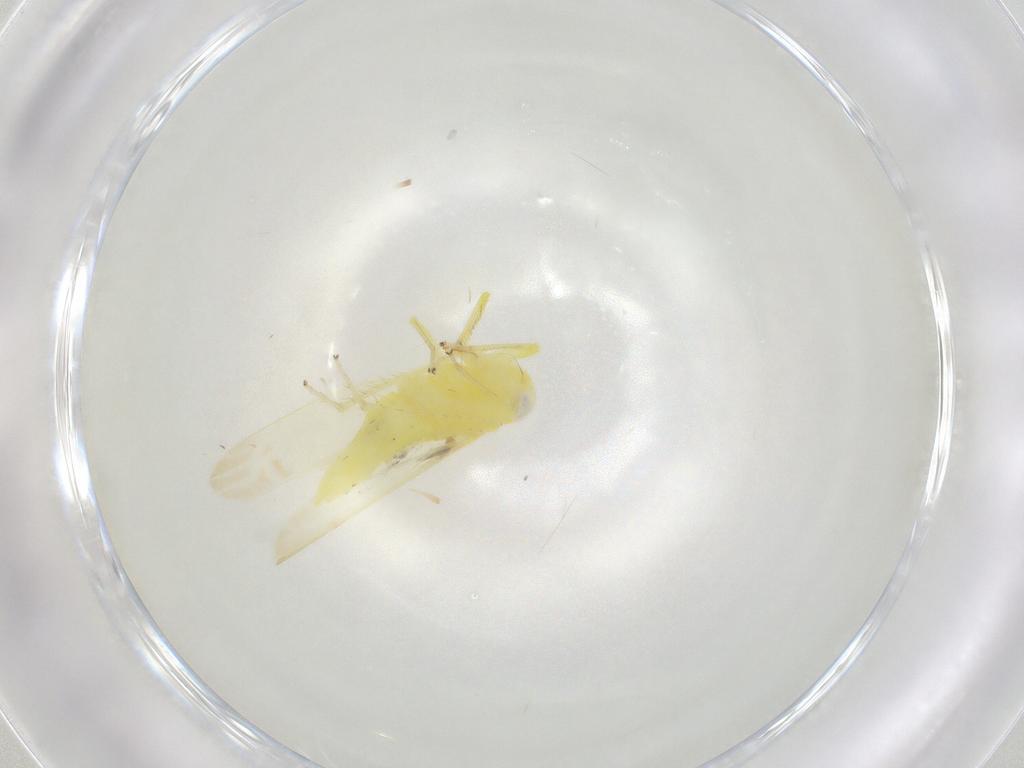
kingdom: Animalia
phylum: Arthropoda
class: Insecta
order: Hemiptera
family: Cicadellidae
